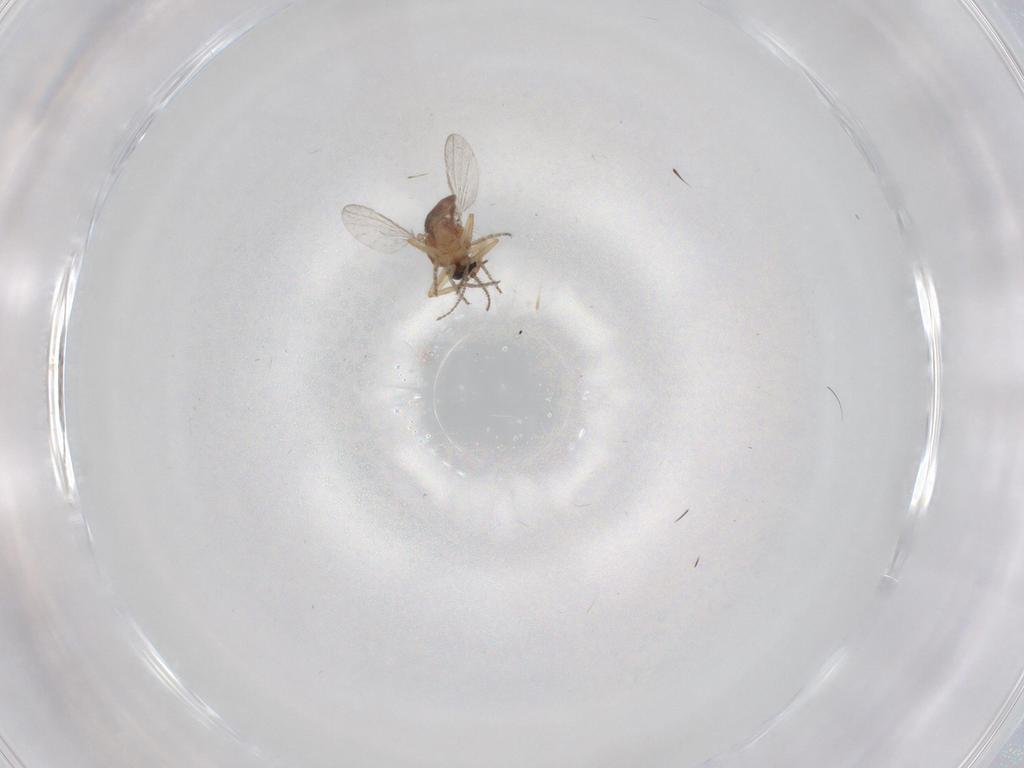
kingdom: Animalia
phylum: Arthropoda
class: Insecta
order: Diptera
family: Ceratopogonidae
